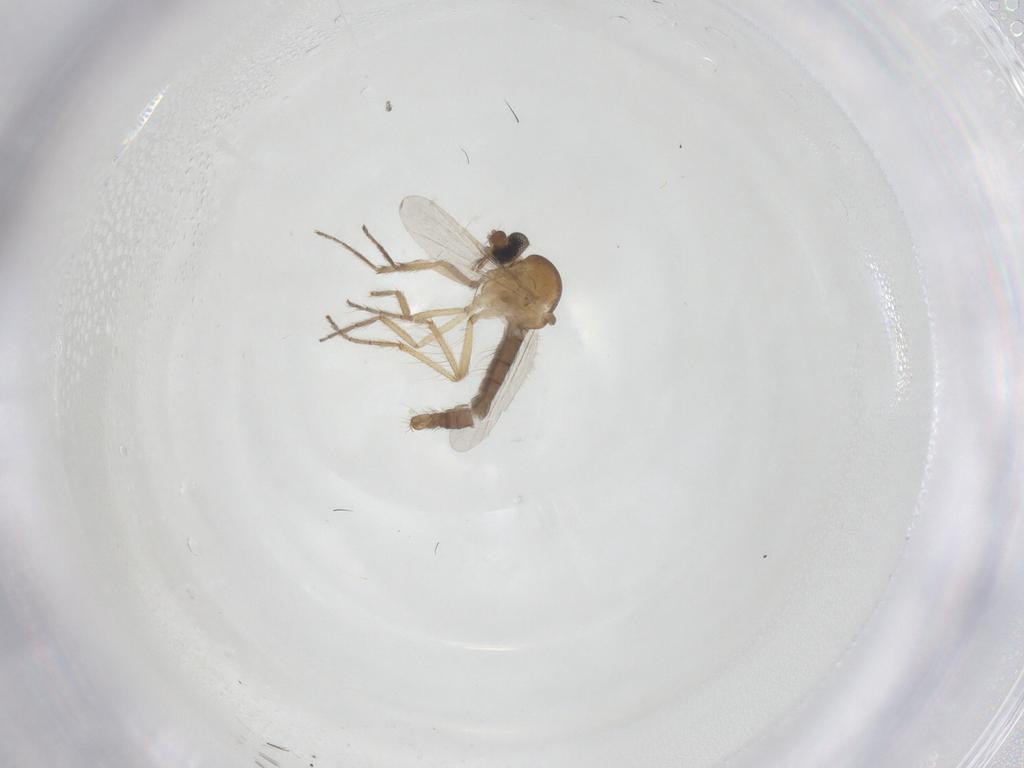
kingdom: Animalia
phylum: Arthropoda
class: Insecta
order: Diptera
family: Ceratopogonidae
